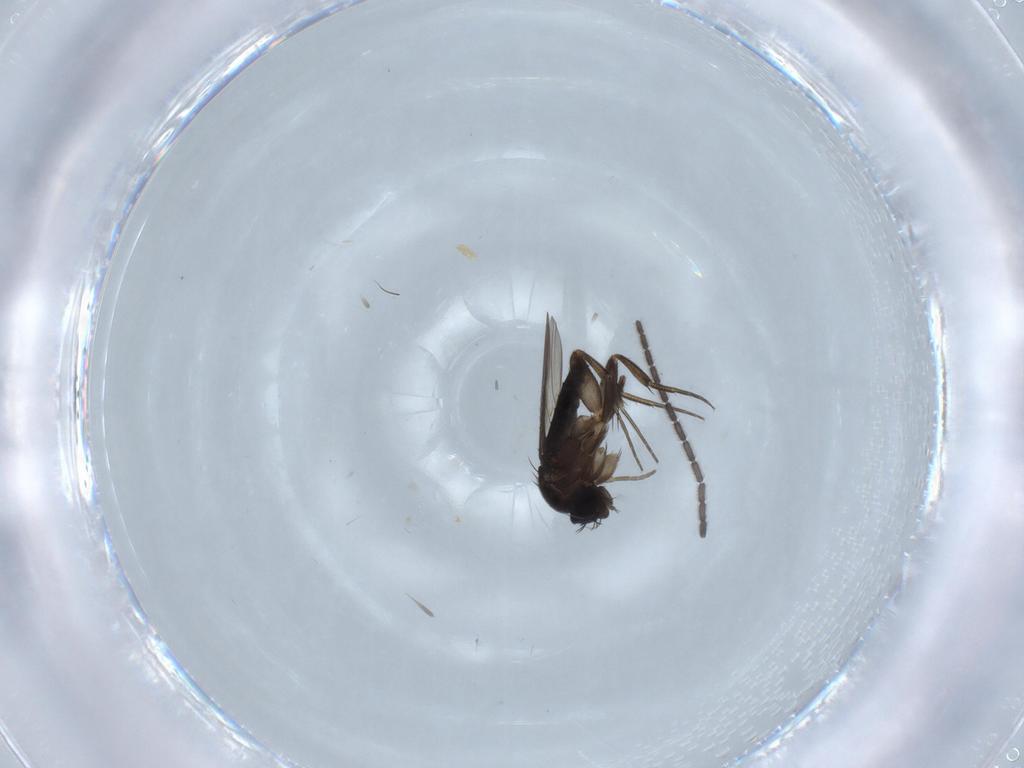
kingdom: Animalia
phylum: Arthropoda
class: Insecta
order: Diptera
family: Phoridae
